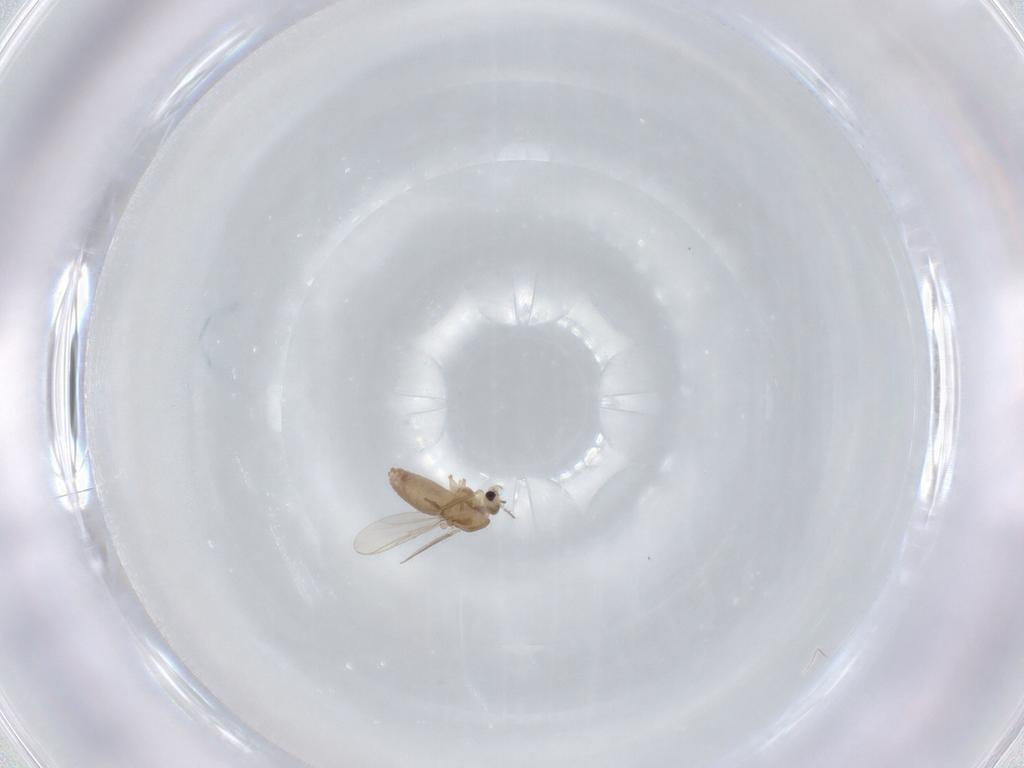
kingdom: Animalia
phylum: Arthropoda
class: Insecta
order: Diptera
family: Chironomidae
